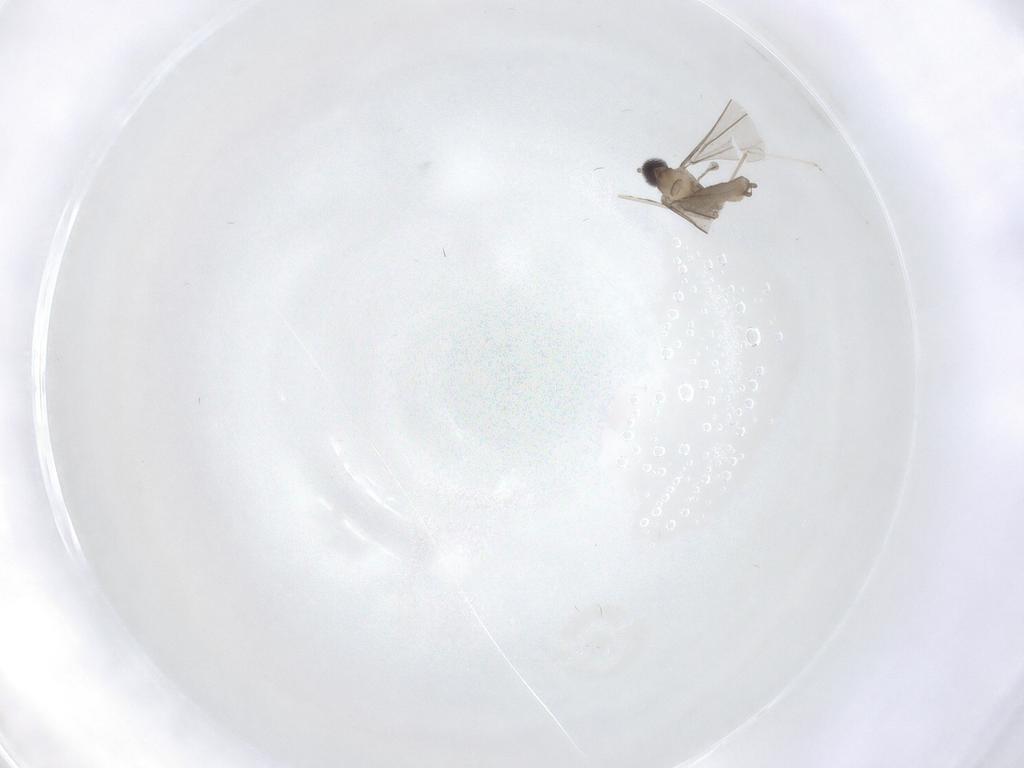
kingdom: Animalia
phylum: Arthropoda
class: Insecta
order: Diptera
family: Cecidomyiidae
